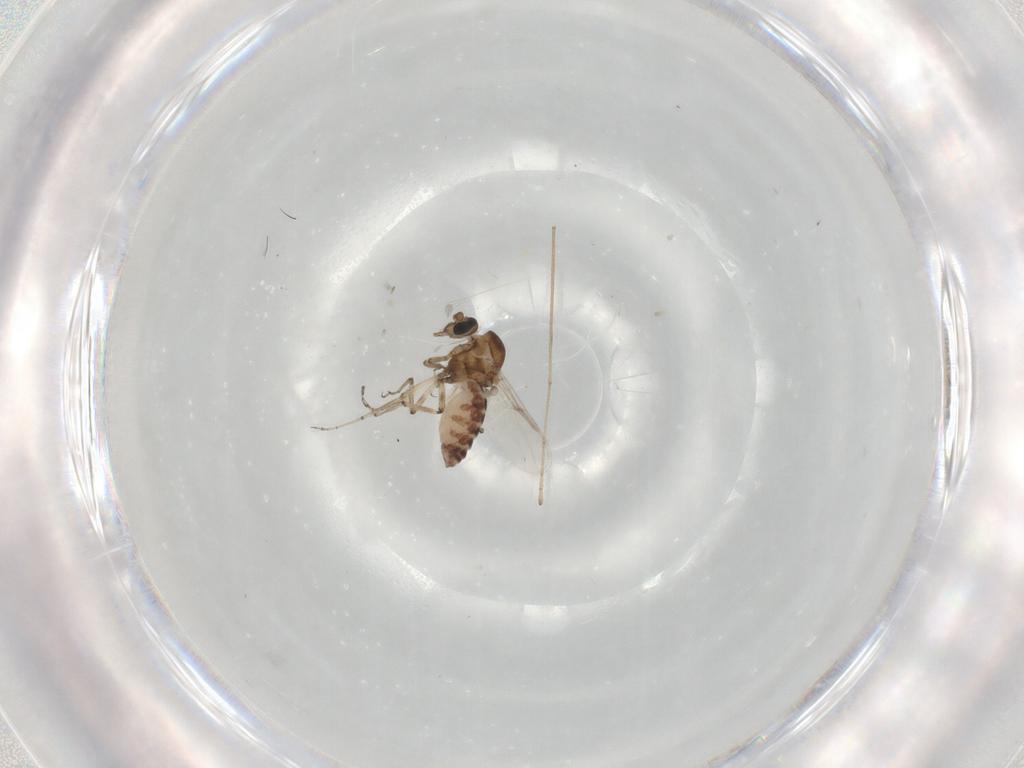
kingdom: Animalia
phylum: Arthropoda
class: Insecta
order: Diptera
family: Ceratopogonidae
